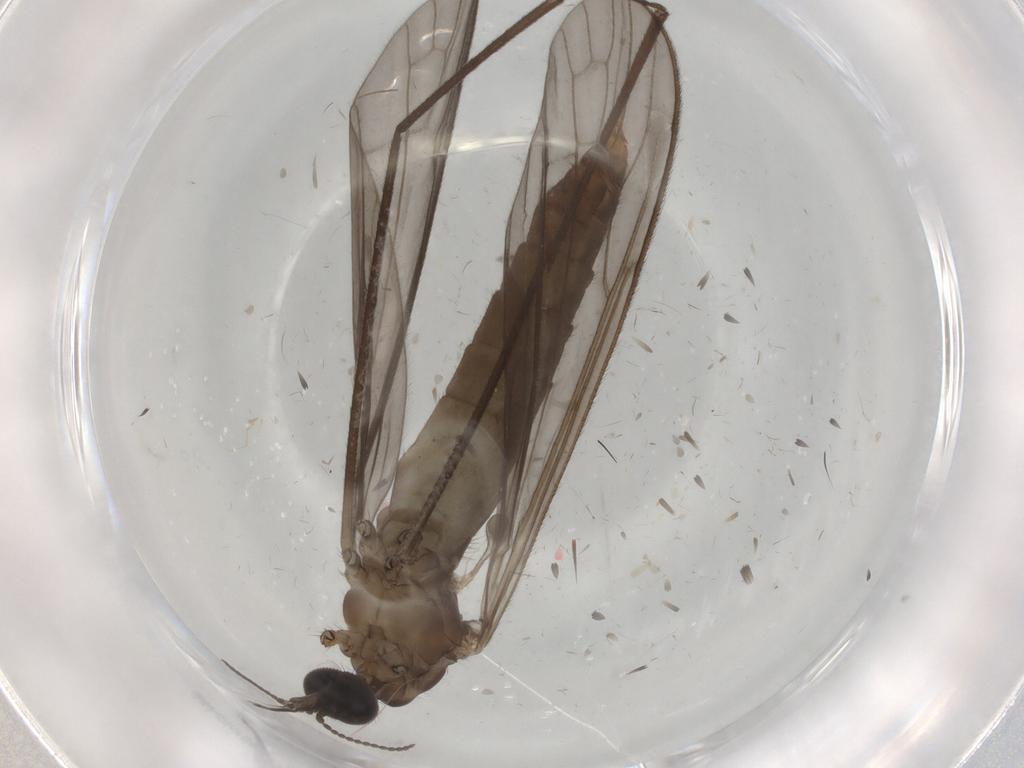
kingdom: Animalia
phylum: Arthropoda
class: Insecta
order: Diptera
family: Cecidomyiidae
